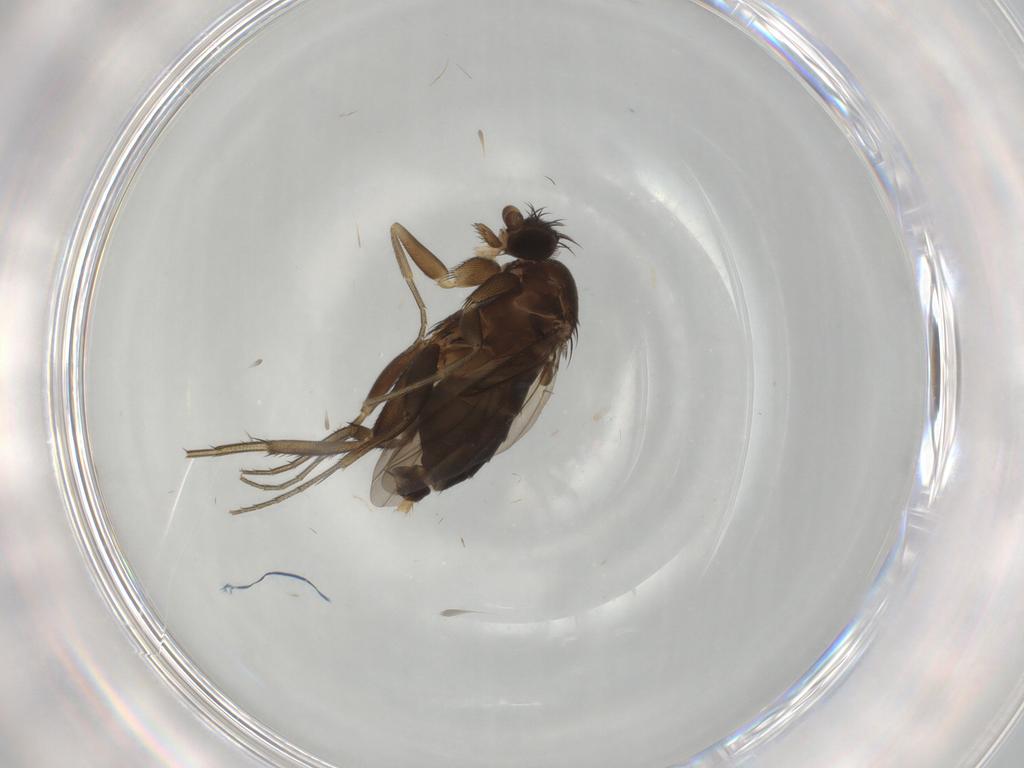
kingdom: Animalia
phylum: Arthropoda
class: Insecta
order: Diptera
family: Phoridae
